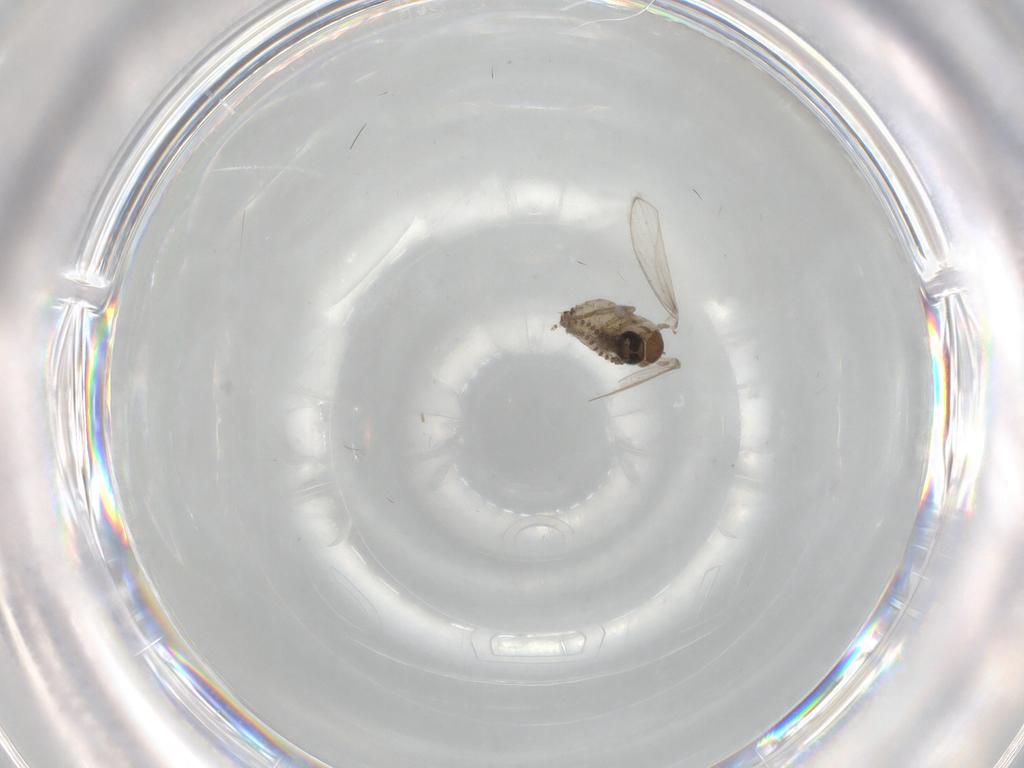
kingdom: Animalia
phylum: Arthropoda
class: Insecta
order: Diptera
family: Psychodidae
